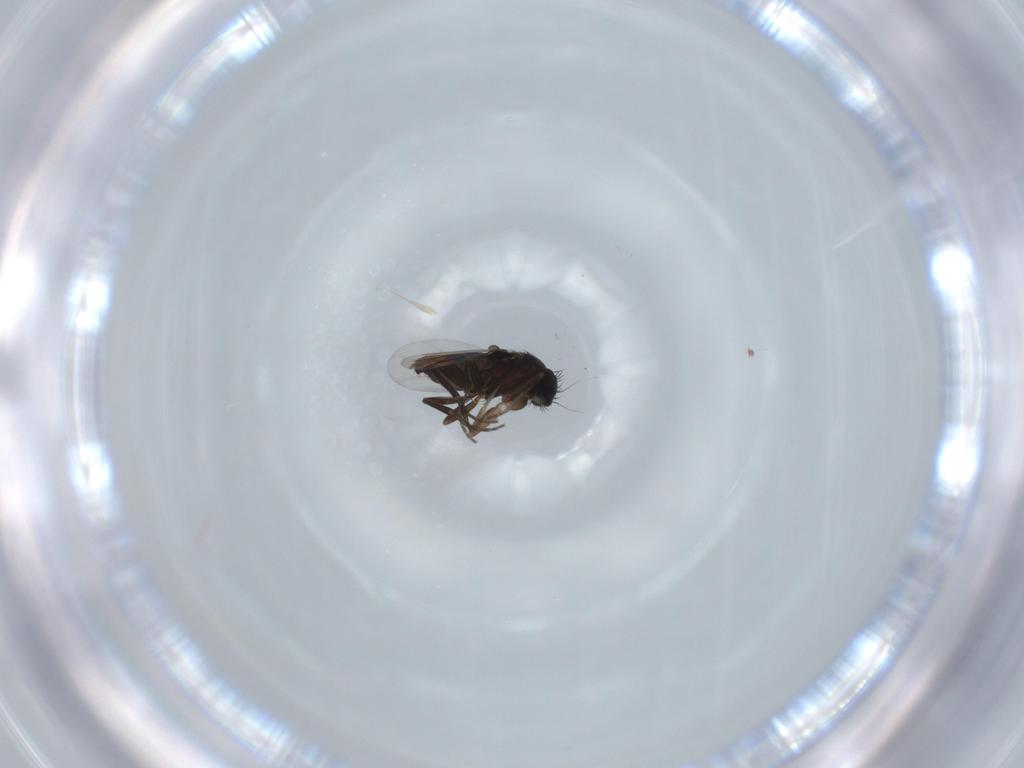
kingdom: Animalia
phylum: Arthropoda
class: Insecta
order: Diptera
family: Phoridae
